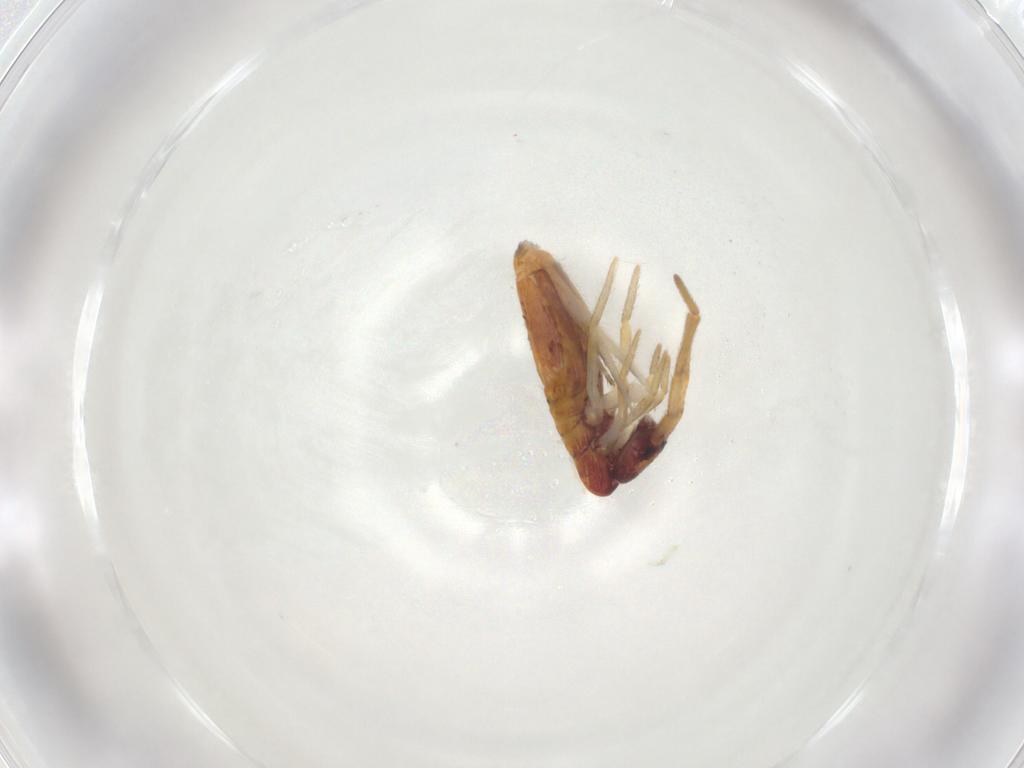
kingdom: Animalia
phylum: Arthropoda
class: Collembola
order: Entomobryomorpha
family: Entomobryidae
